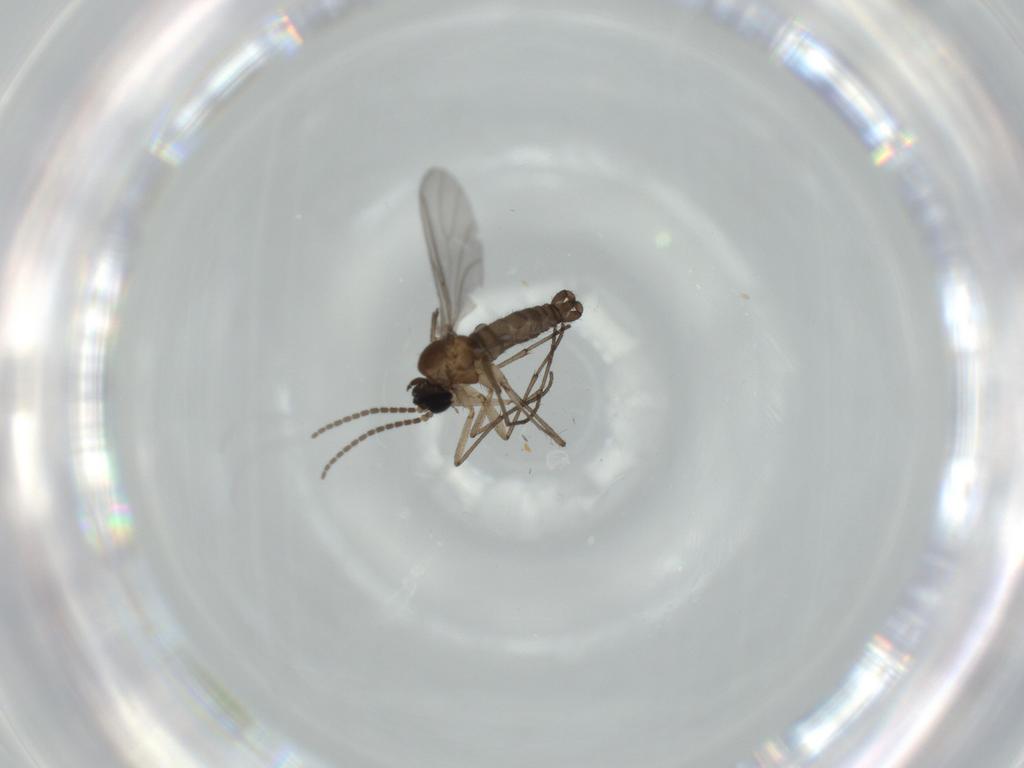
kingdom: Animalia
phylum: Arthropoda
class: Insecta
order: Diptera
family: Sciaridae
